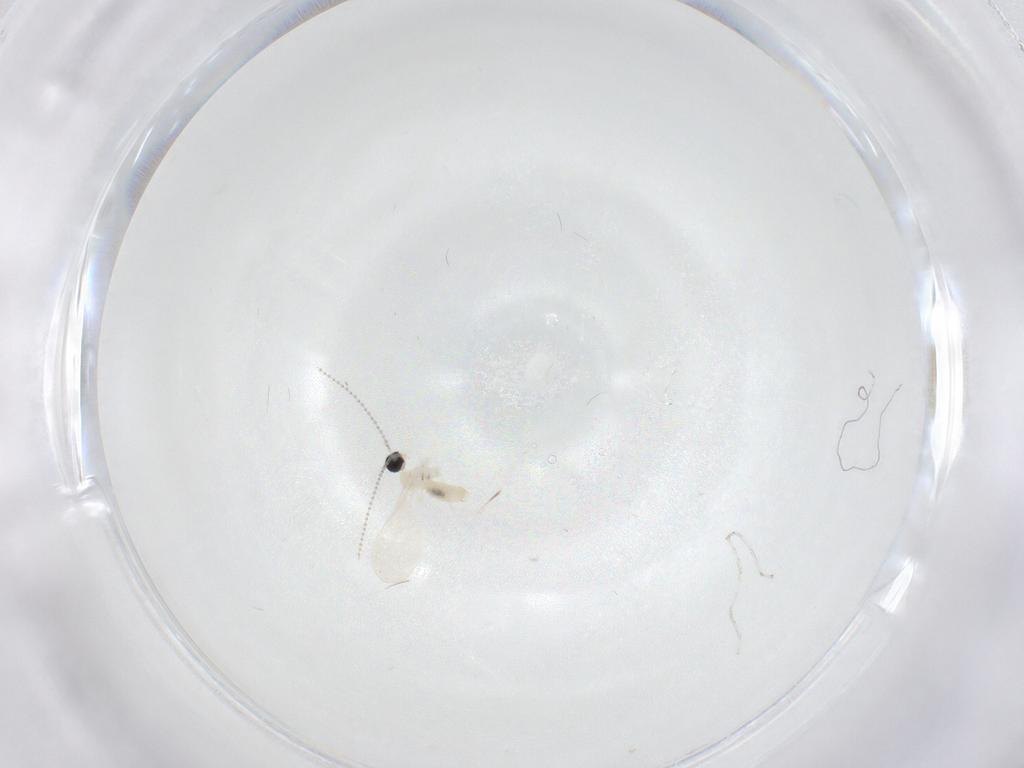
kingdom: Animalia
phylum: Arthropoda
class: Insecta
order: Diptera
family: Cecidomyiidae
